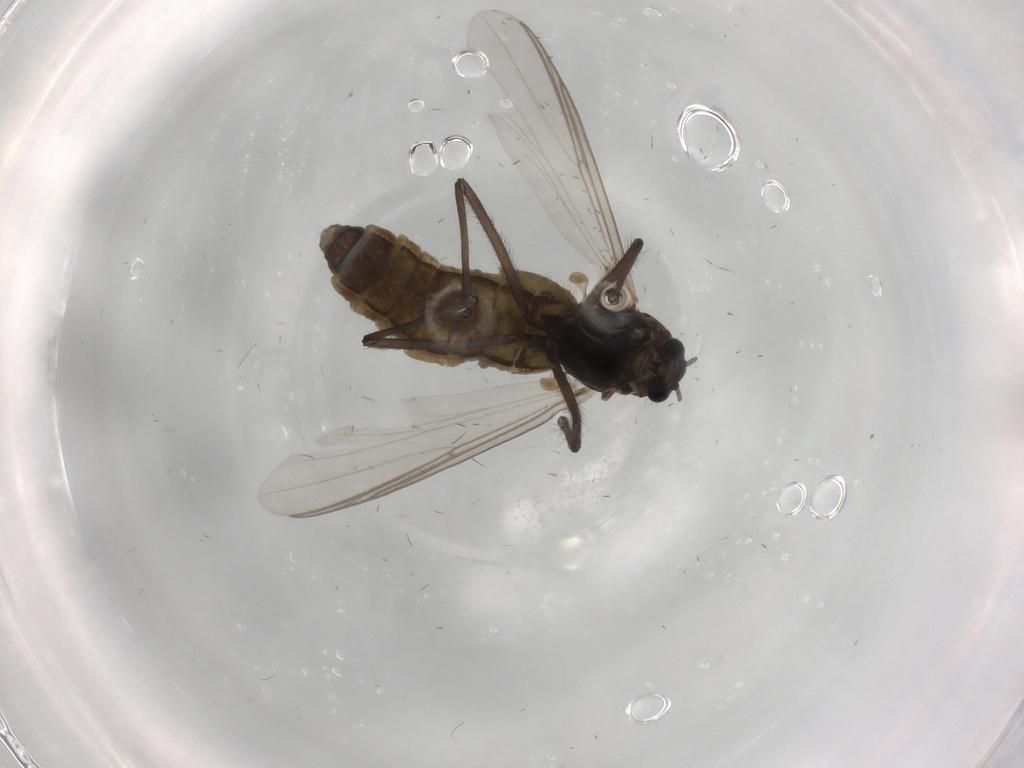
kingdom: Animalia
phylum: Arthropoda
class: Insecta
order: Diptera
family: Chironomidae
